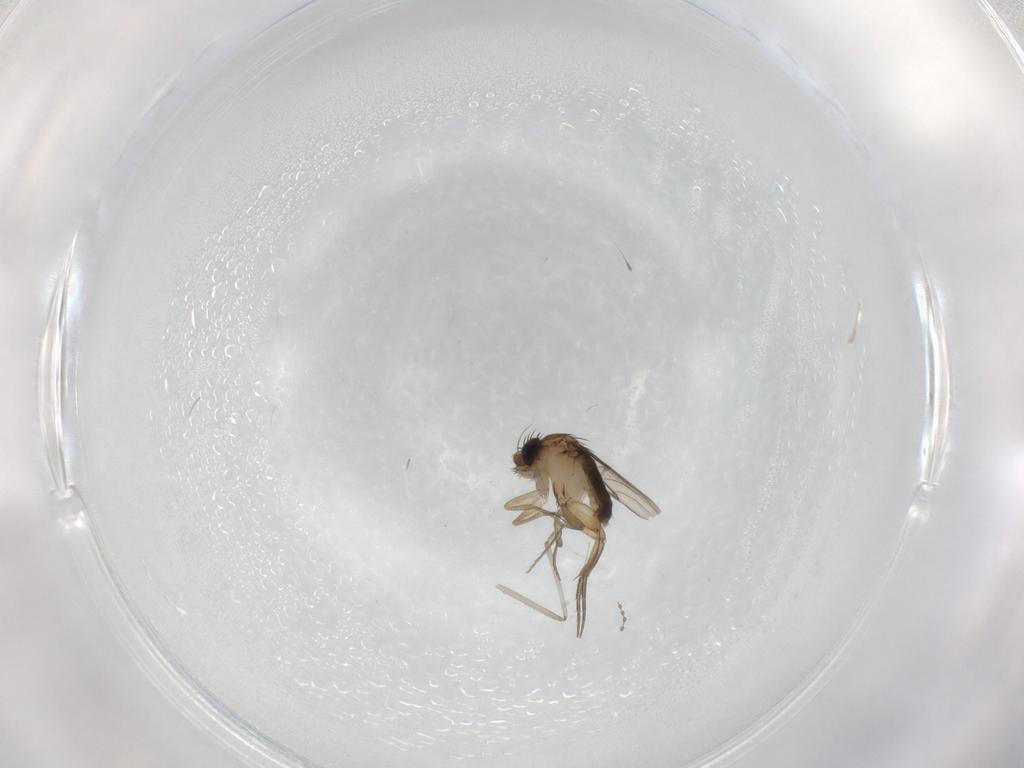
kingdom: Animalia
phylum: Arthropoda
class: Insecta
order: Diptera
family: Phoridae
